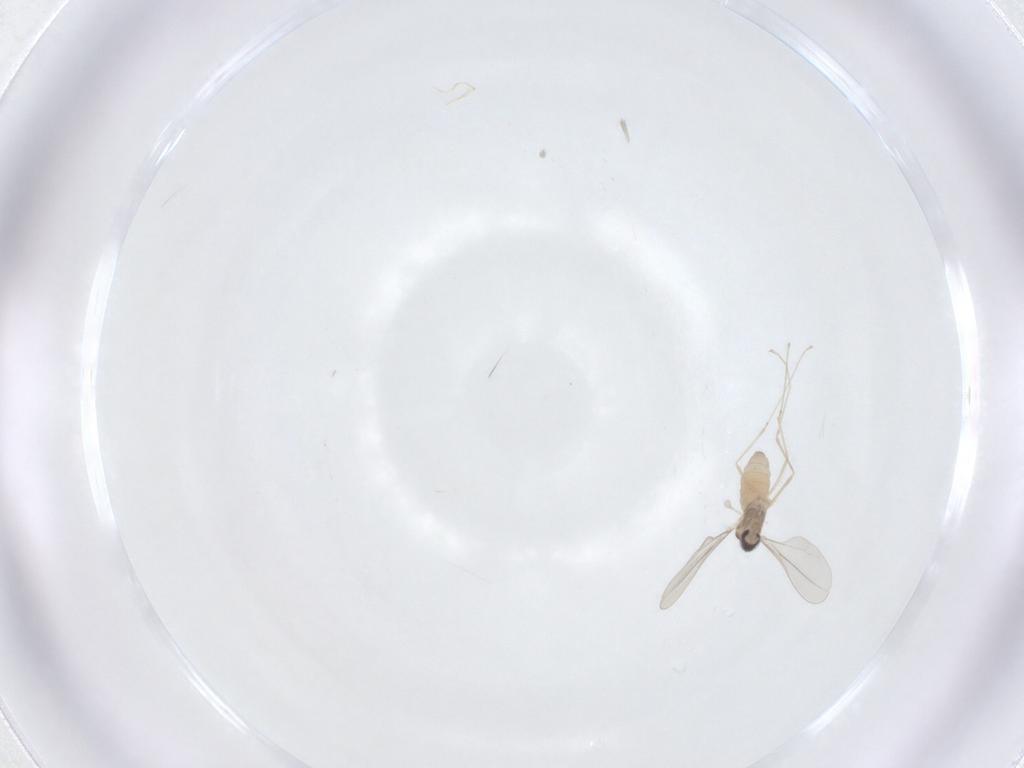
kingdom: Animalia
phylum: Arthropoda
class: Insecta
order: Diptera
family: Cecidomyiidae
